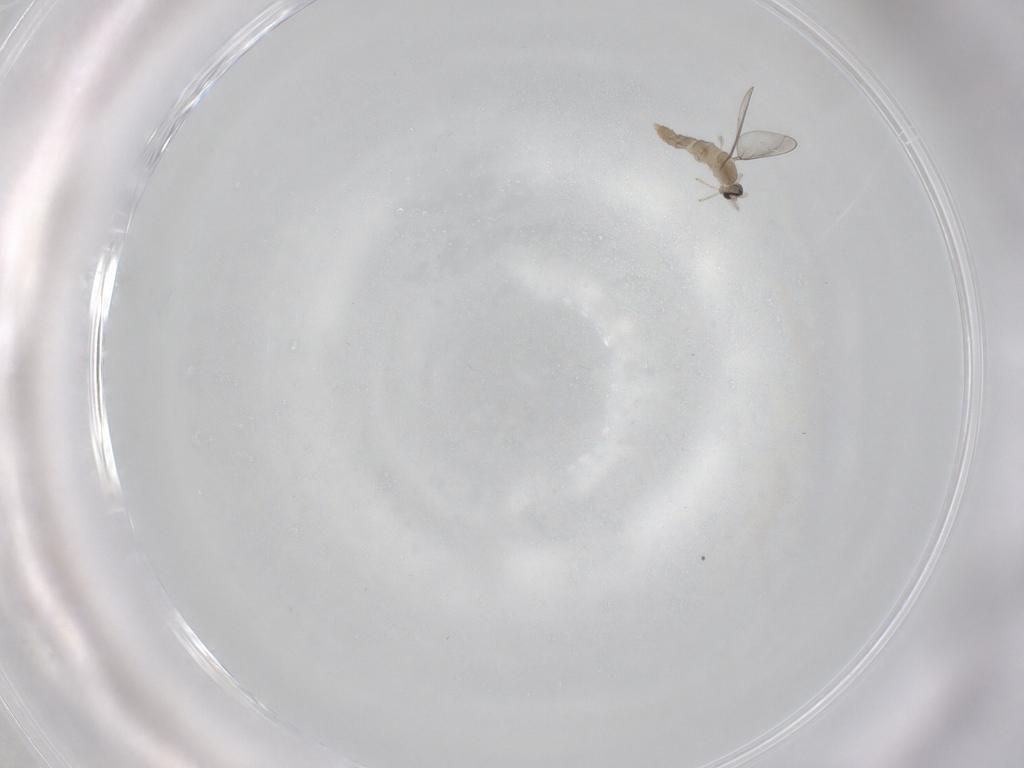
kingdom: Animalia
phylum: Arthropoda
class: Insecta
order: Diptera
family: Cecidomyiidae
